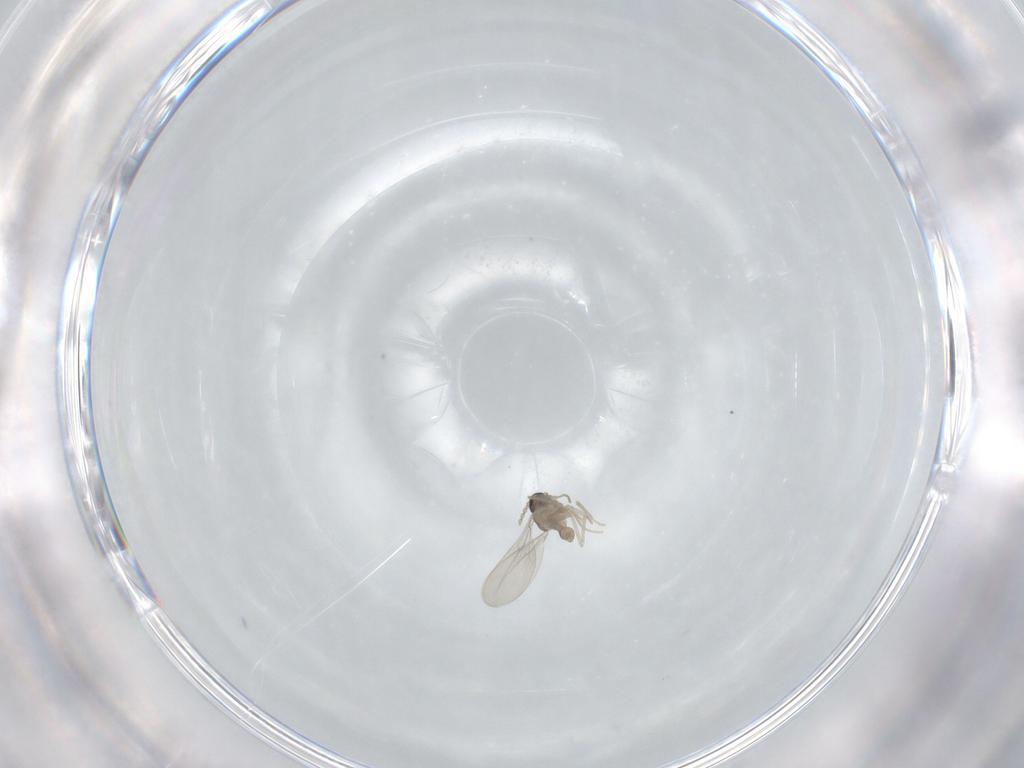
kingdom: Animalia
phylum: Arthropoda
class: Insecta
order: Diptera
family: Cecidomyiidae
